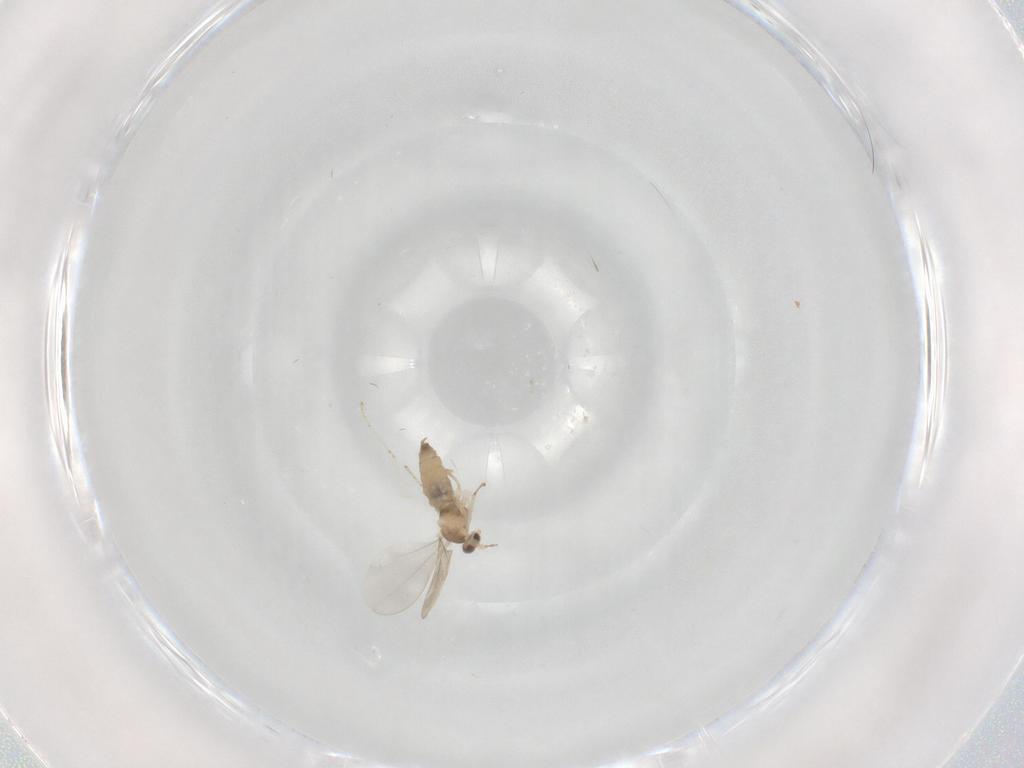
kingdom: Animalia
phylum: Arthropoda
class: Insecta
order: Diptera
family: Cecidomyiidae
